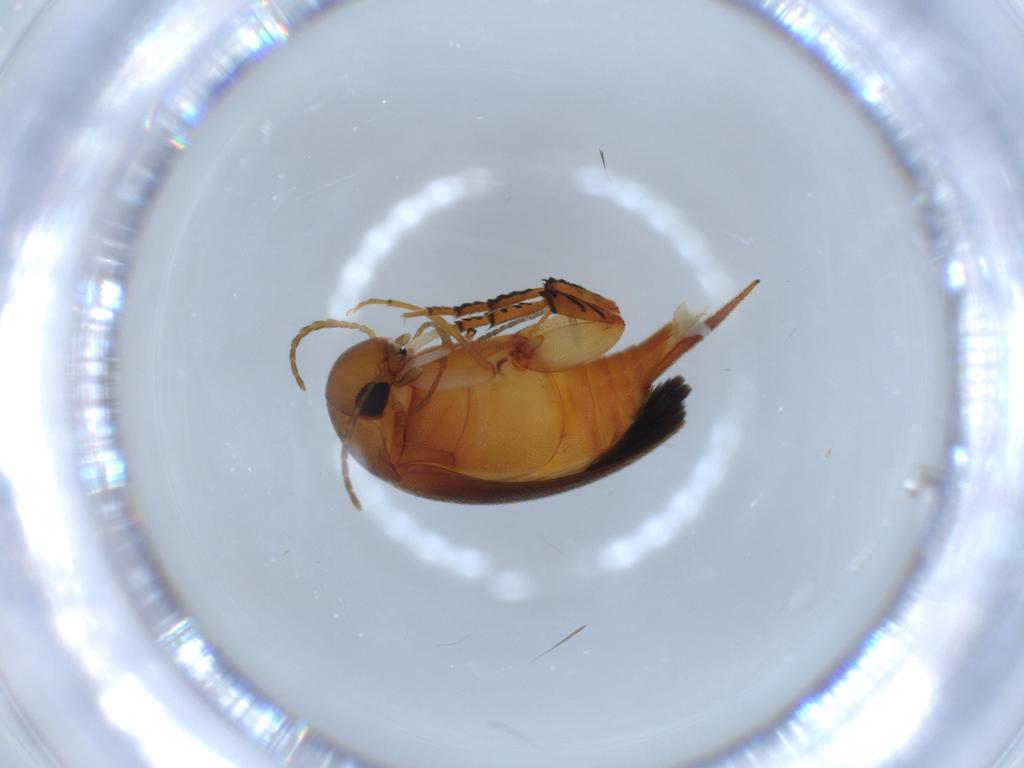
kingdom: Animalia
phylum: Arthropoda
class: Insecta
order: Coleoptera
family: Mordellidae
